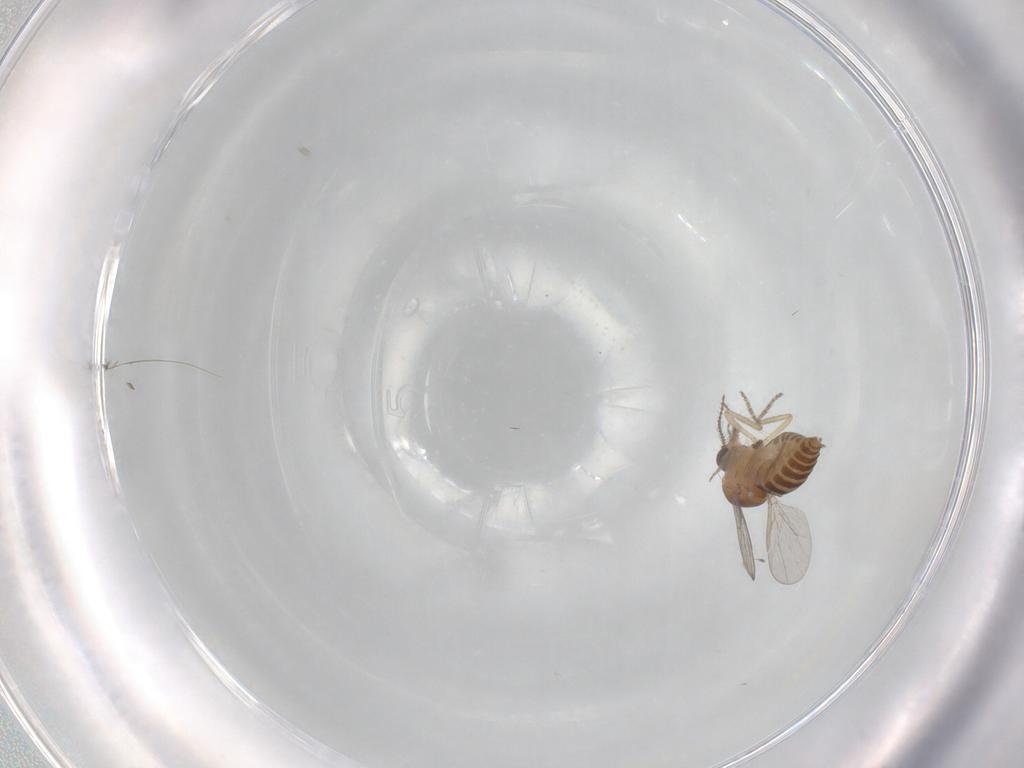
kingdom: Animalia
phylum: Arthropoda
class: Insecta
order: Diptera
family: Ceratopogonidae
